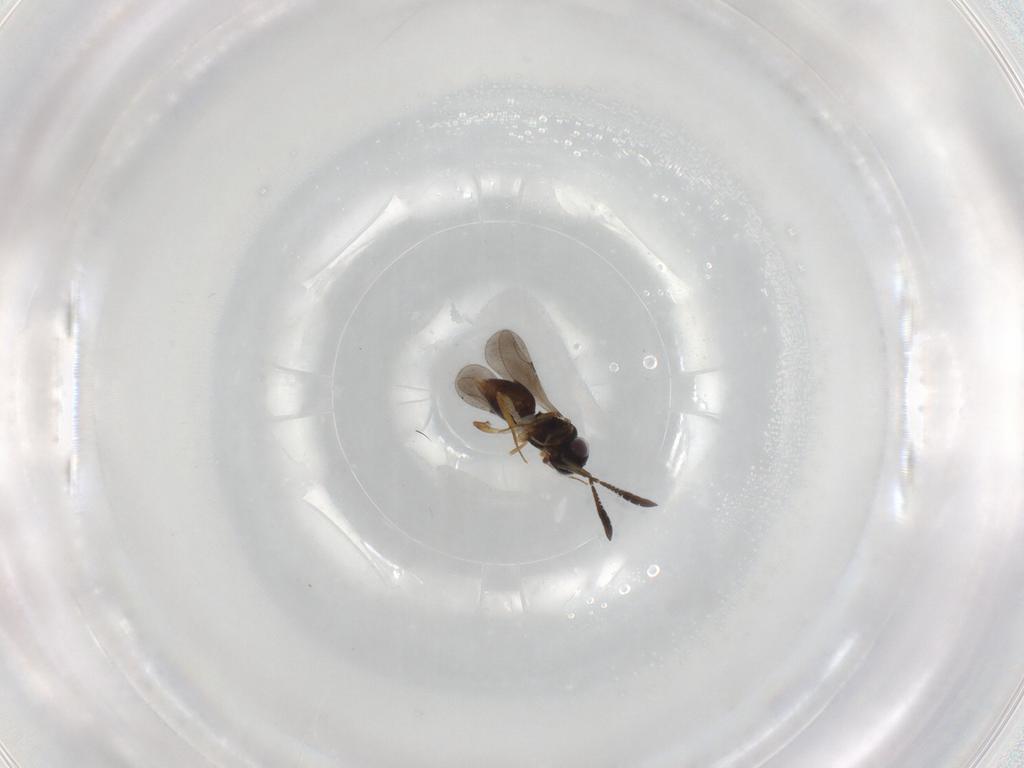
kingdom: Animalia
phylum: Arthropoda
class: Insecta
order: Hymenoptera
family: Ceraphronidae
